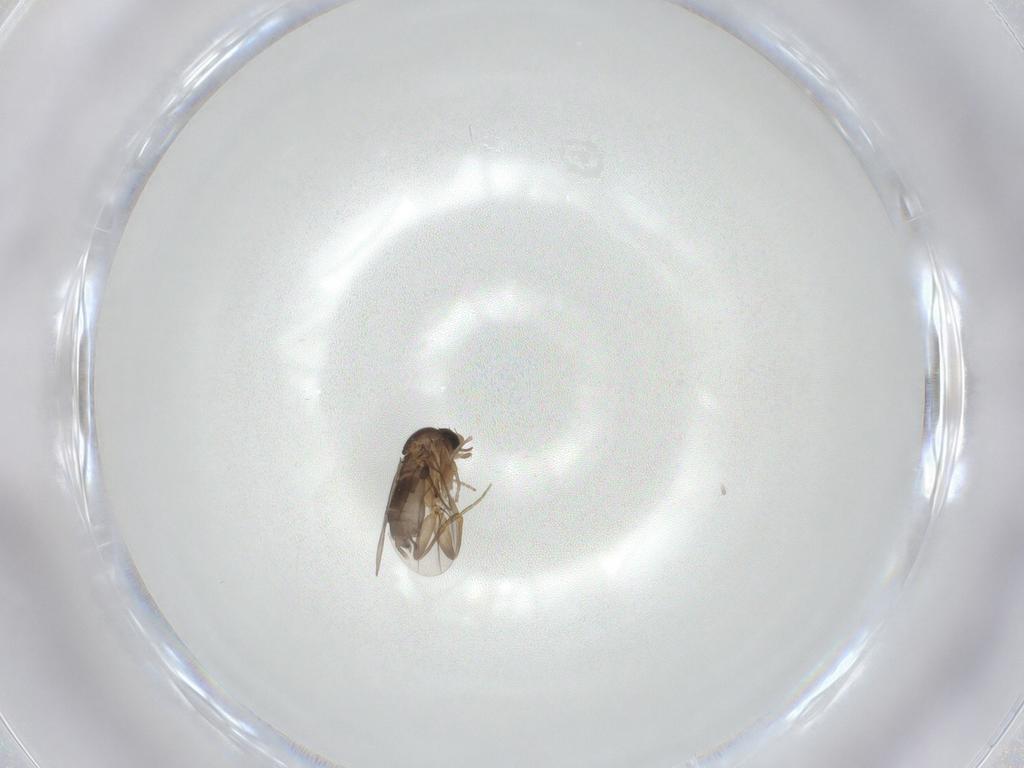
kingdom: Animalia
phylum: Arthropoda
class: Insecta
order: Diptera
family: Phoridae
